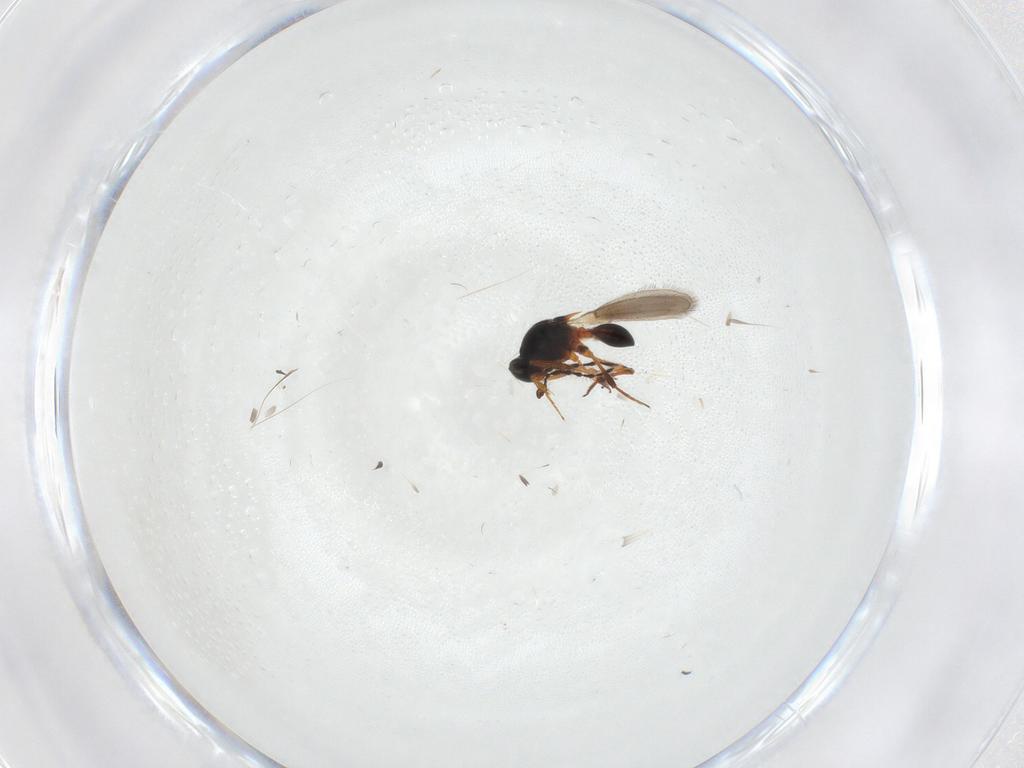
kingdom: Animalia
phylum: Arthropoda
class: Insecta
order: Hymenoptera
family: Platygastridae
